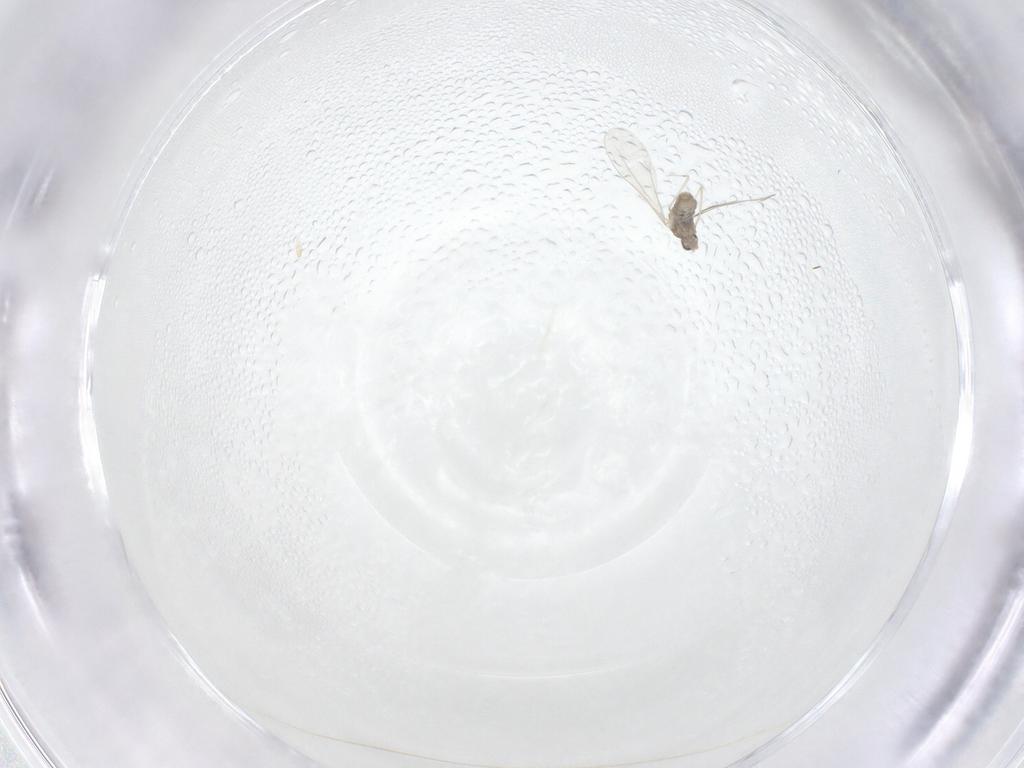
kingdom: Animalia
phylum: Arthropoda
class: Insecta
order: Diptera
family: Cecidomyiidae
